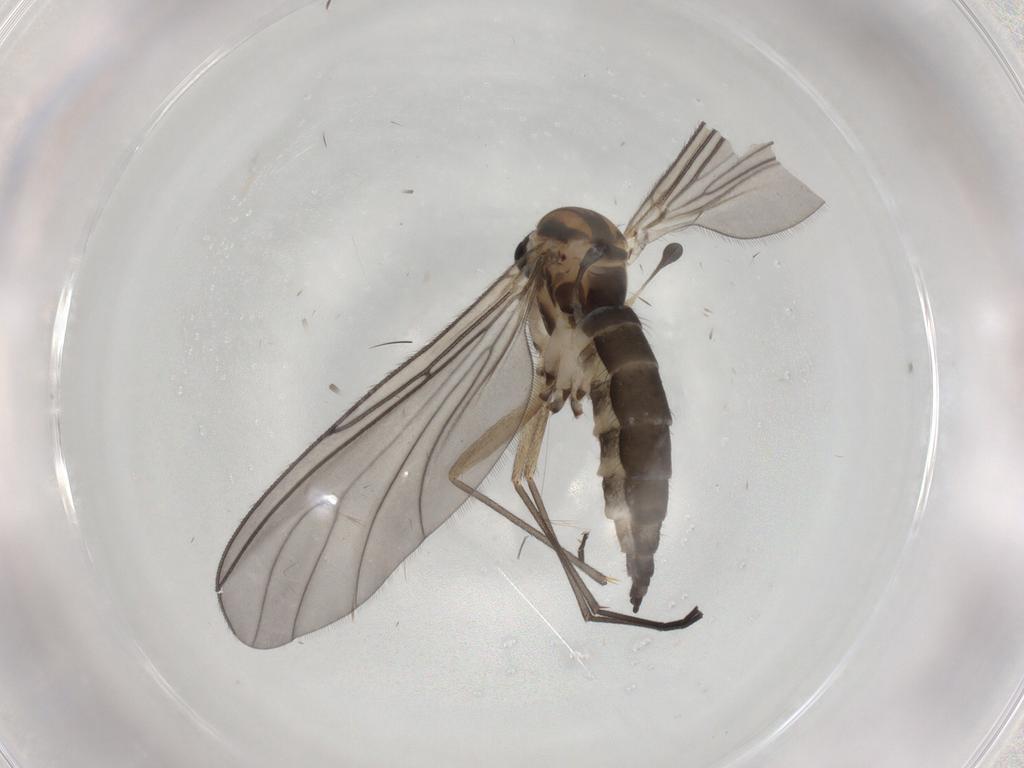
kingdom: Animalia
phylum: Arthropoda
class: Insecta
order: Diptera
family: Sciaridae
